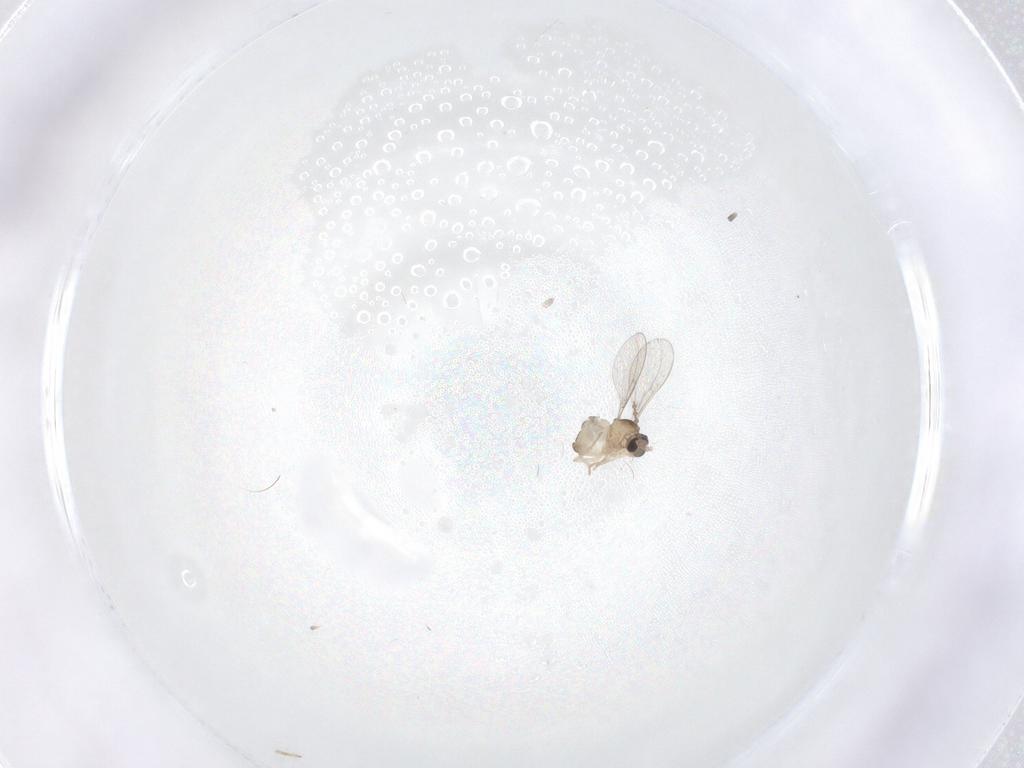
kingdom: Animalia
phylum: Arthropoda
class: Insecta
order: Diptera
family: Cecidomyiidae
